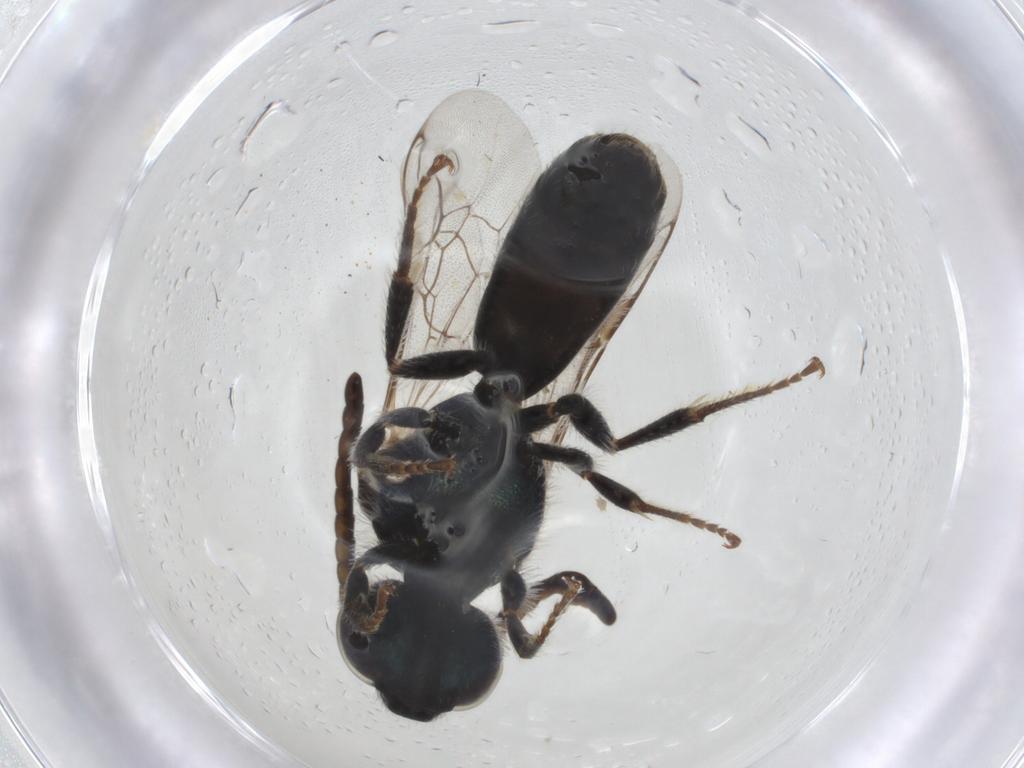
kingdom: Animalia
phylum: Arthropoda
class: Insecta
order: Hymenoptera
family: Halictidae
